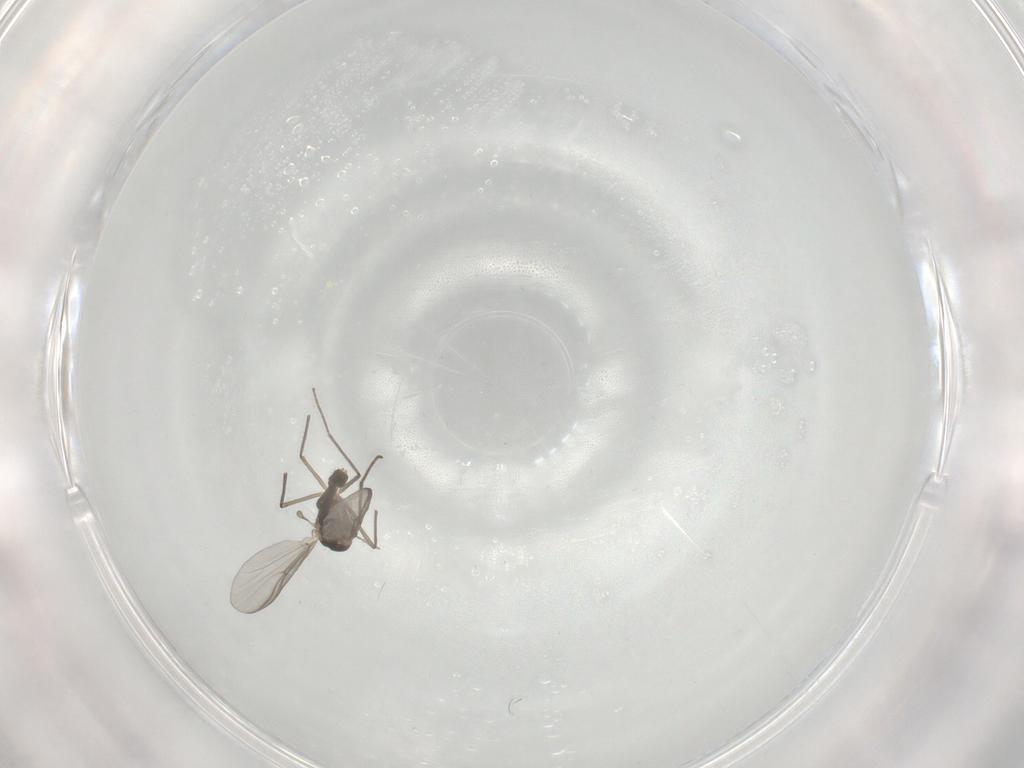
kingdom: Animalia
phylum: Arthropoda
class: Insecta
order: Diptera
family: Chironomidae
